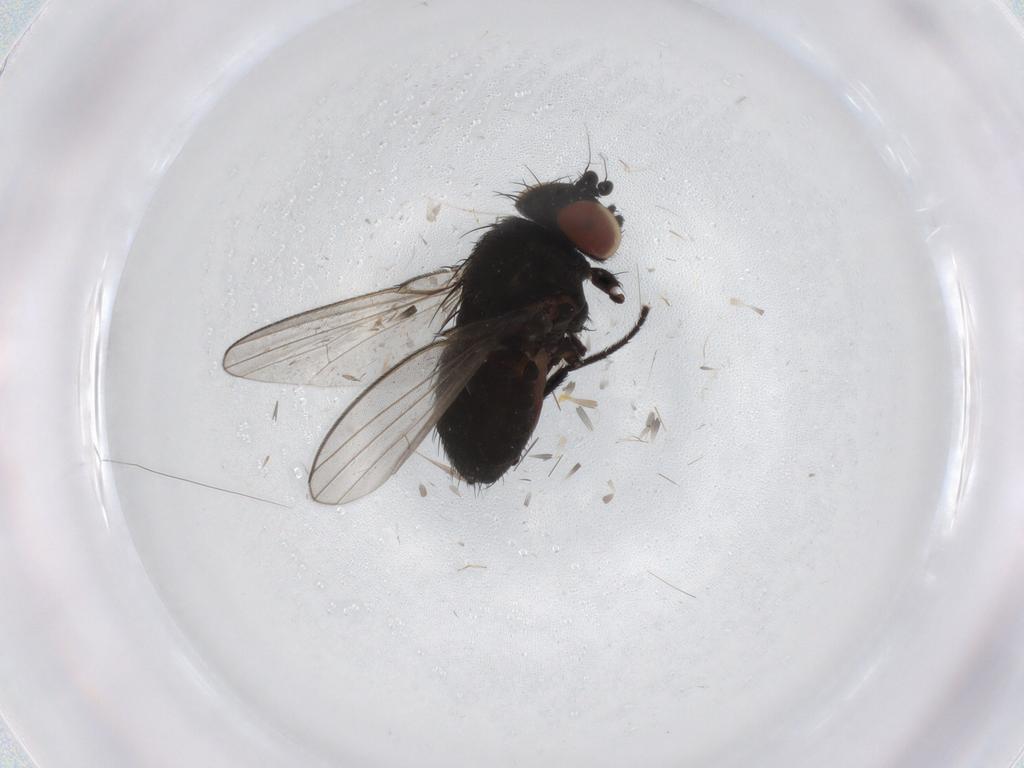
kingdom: Animalia
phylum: Arthropoda
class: Insecta
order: Diptera
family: Milichiidae
